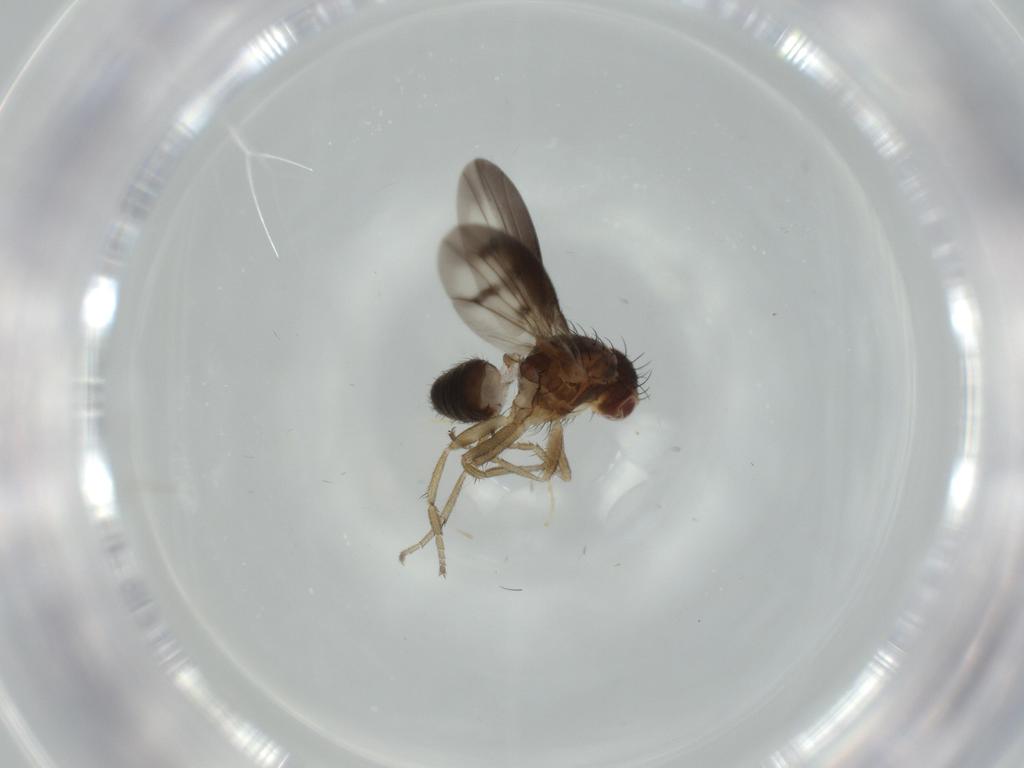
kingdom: Animalia
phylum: Arthropoda
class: Insecta
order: Diptera
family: Heleomyzidae
